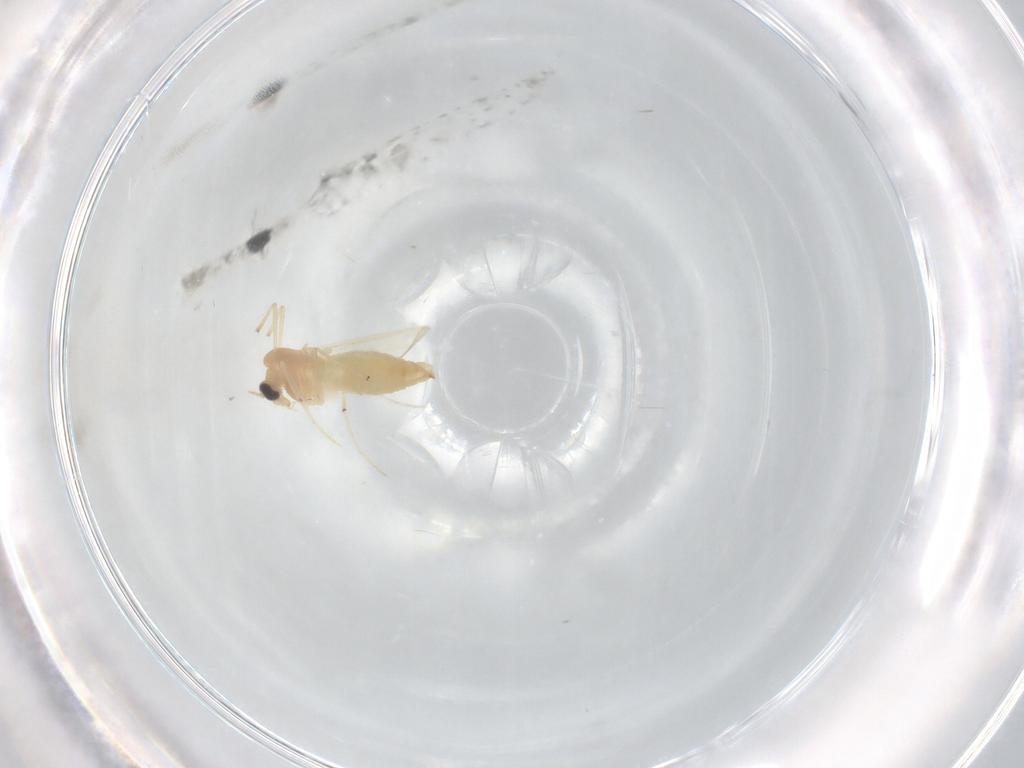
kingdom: Animalia
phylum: Arthropoda
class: Insecta
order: Diptera
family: Chironomidae
